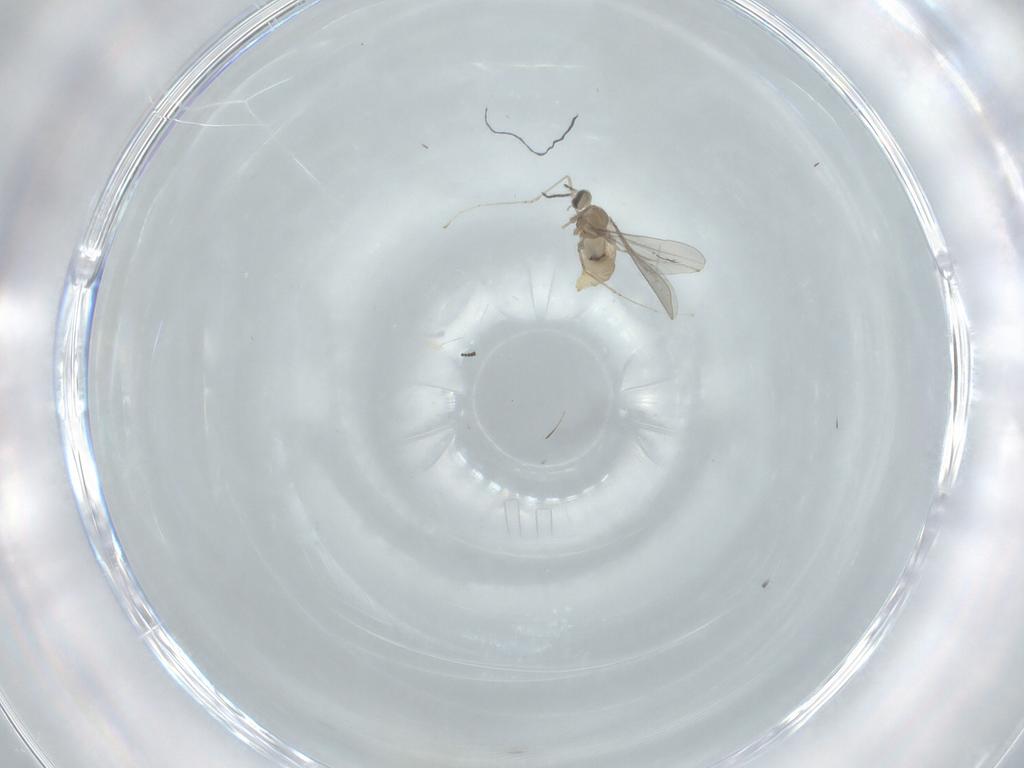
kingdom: Animalia
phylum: Arthropoda
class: Insecta
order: Diptera
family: Cecidomyiidae
